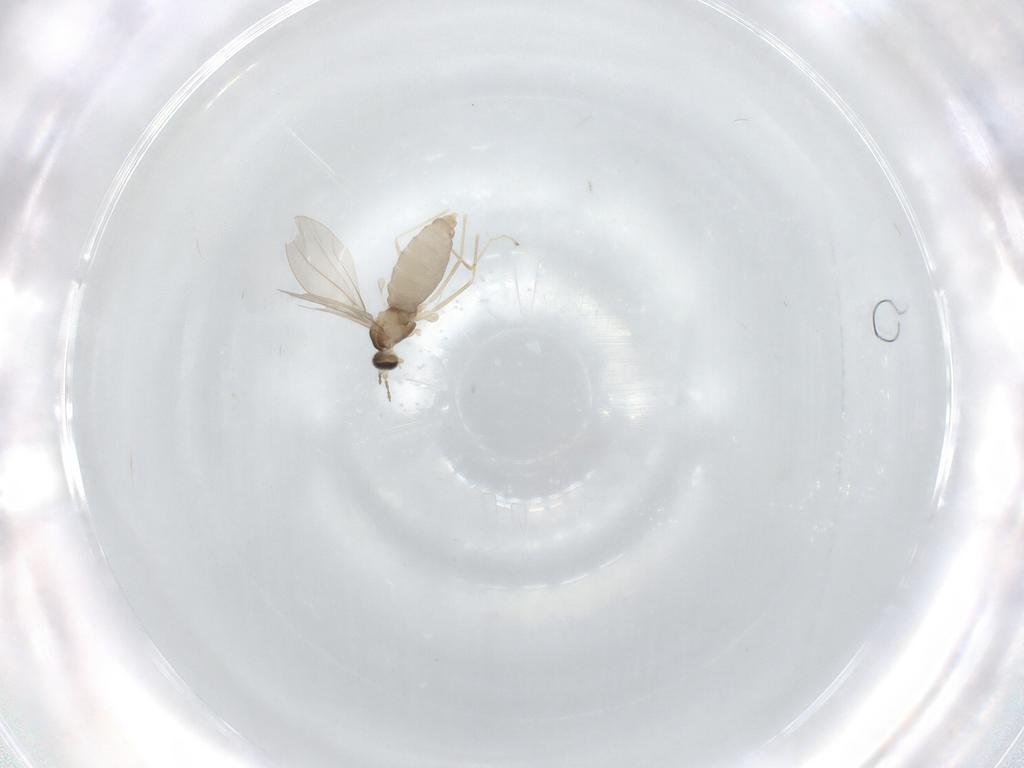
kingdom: Animalia
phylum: Arthropoda
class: Insecta
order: Diptera
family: Cecidomyiidae
